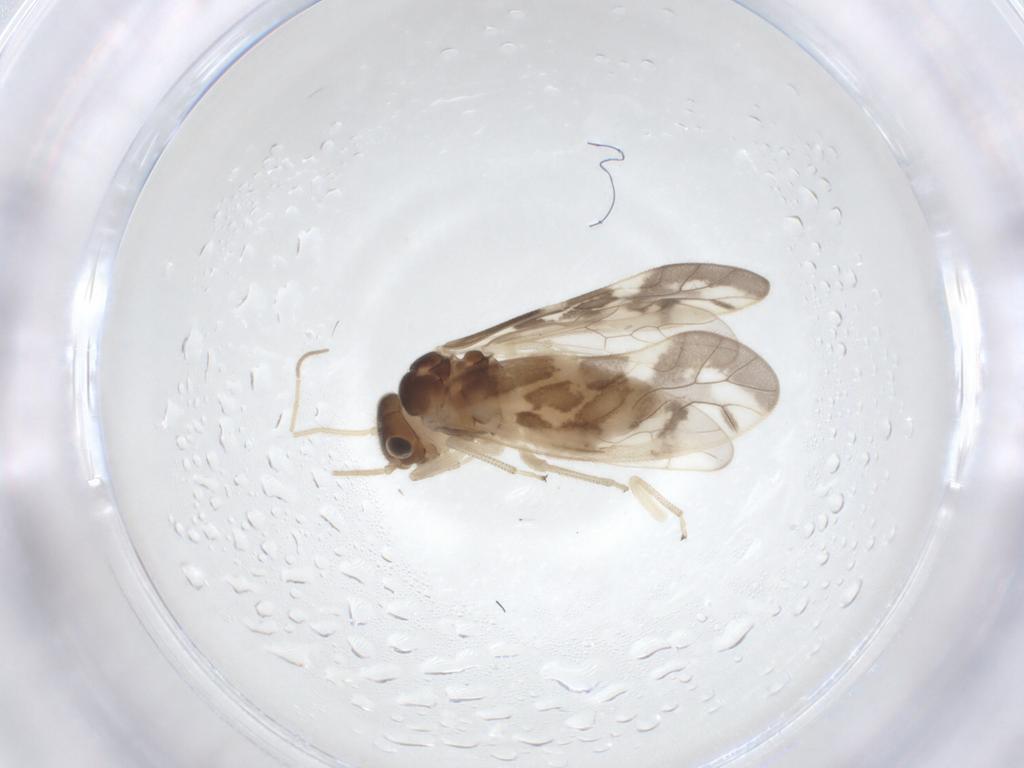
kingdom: Animalia
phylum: Arthropoda
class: Insecta
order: Psocodea
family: Caeciliusidae
